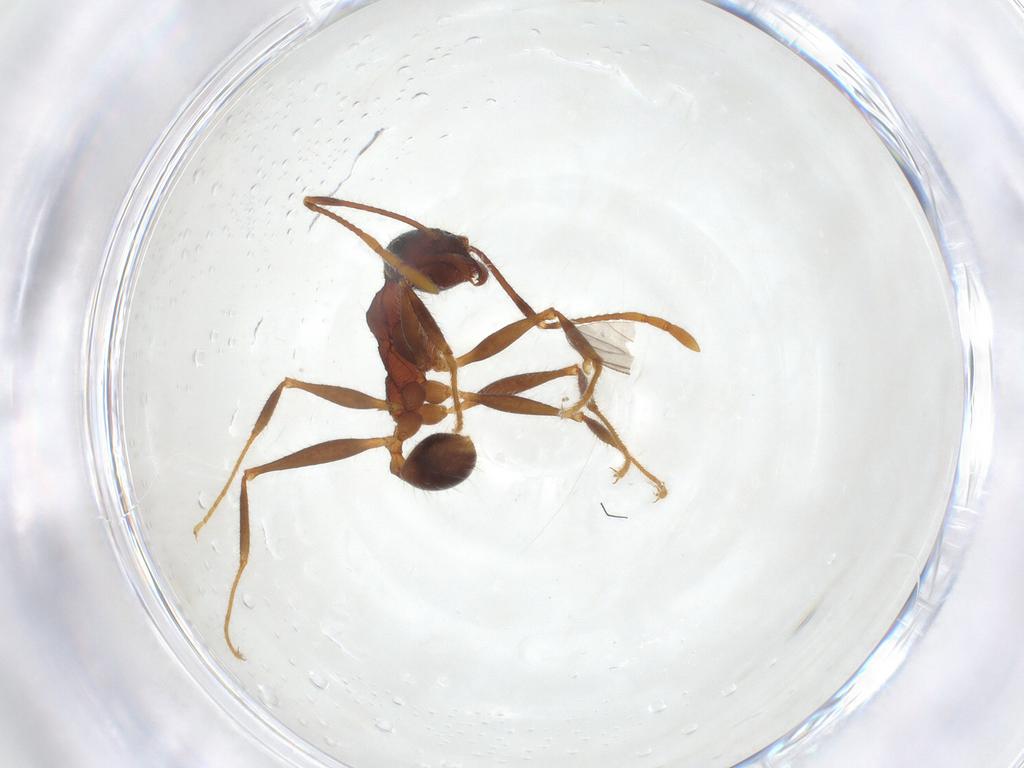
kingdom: Animalia
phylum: Arthropoda
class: Insecta
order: Hymenoptera
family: Formicidae
